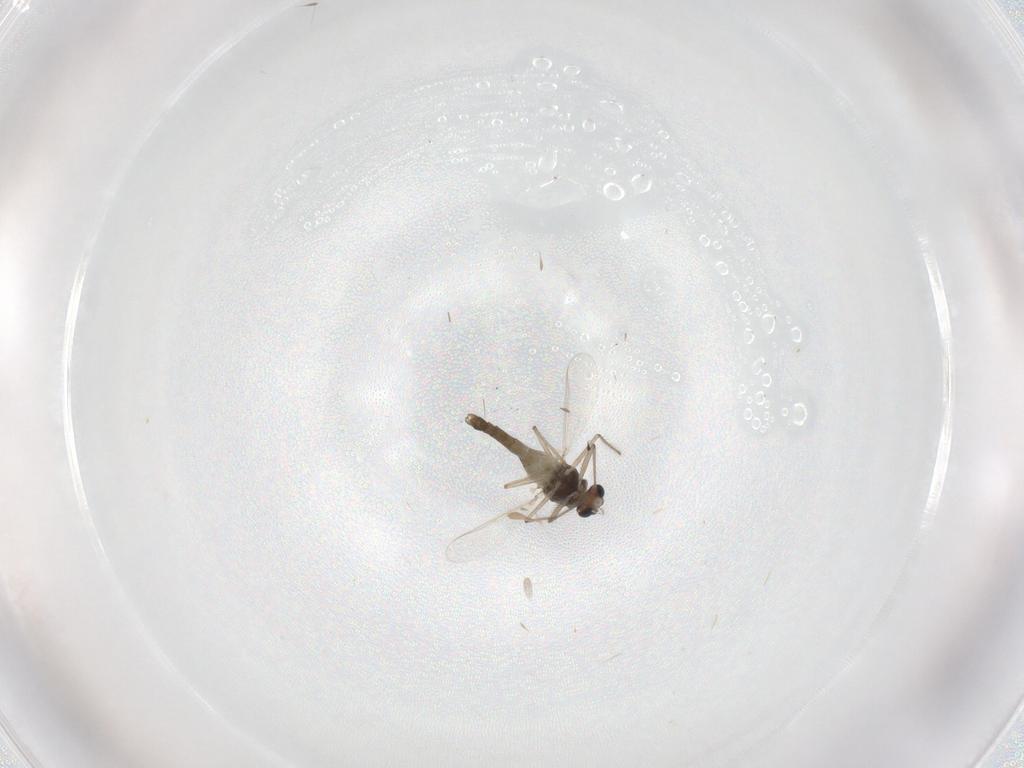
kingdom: Animalia
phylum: Arthropoda
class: Insecta
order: Diptera
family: Chironomidae
